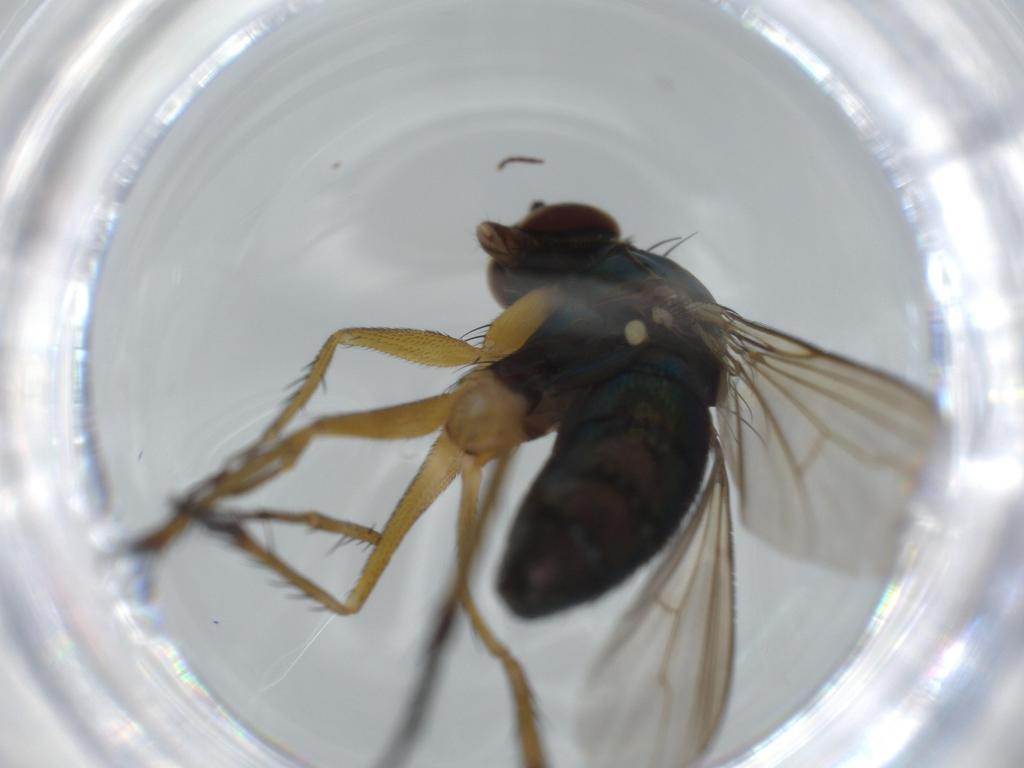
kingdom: Animalia
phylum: Arthropoda
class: Insecta
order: Diptera
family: Dolichopodidae
